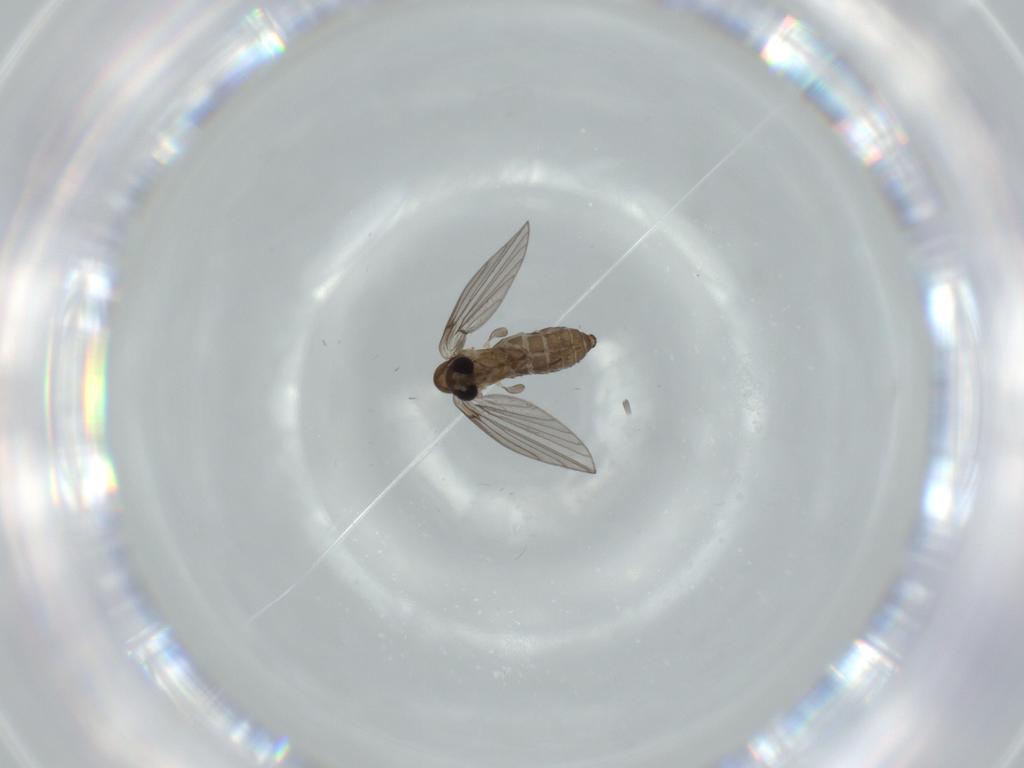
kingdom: Animalia
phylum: Arthropoda
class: Insecta
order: Diptera
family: Psychodidae
